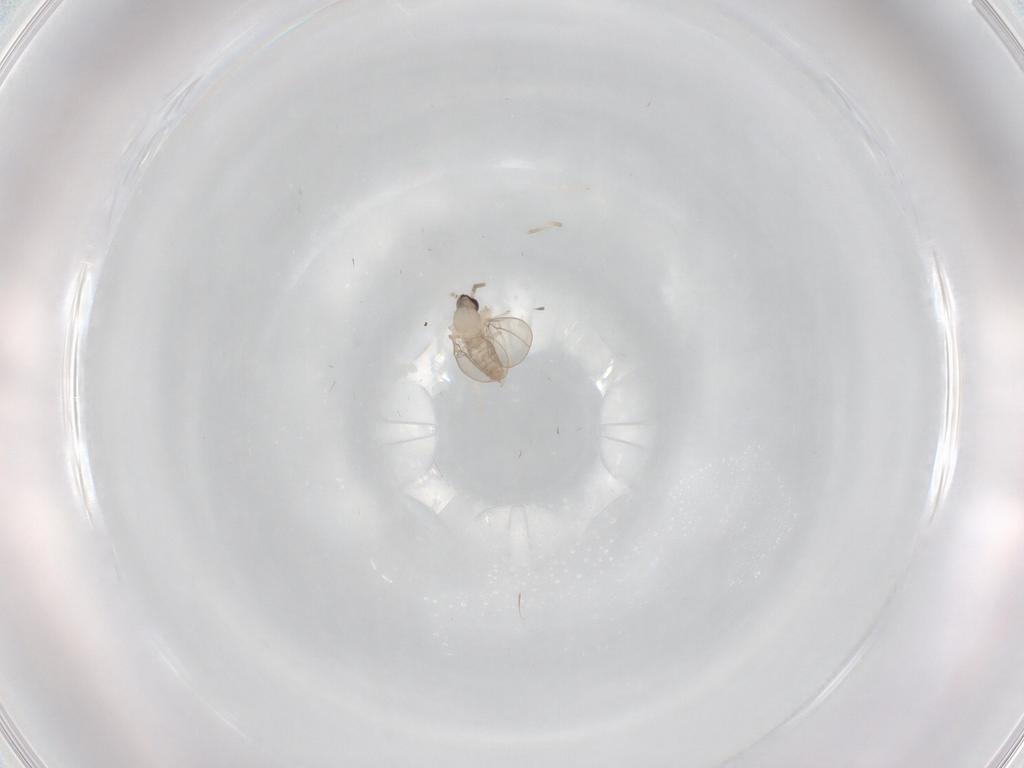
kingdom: Animalia
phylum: Arthropoda
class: Insecta
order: Diptera
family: Cecidomyiidae
